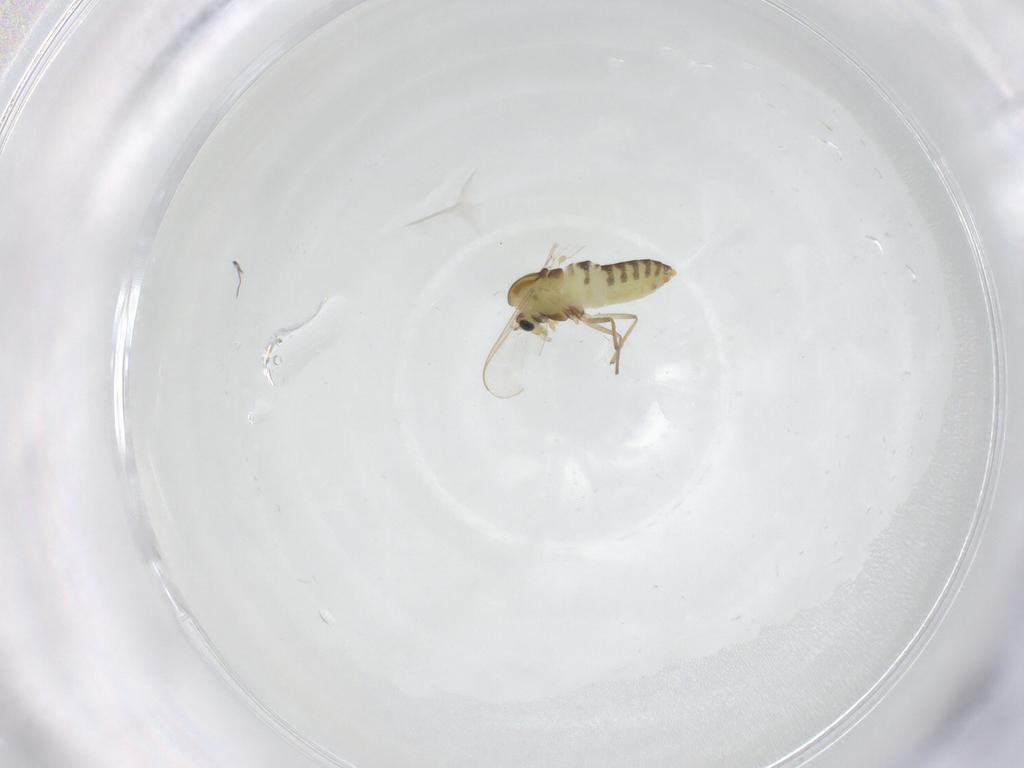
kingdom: Animalia
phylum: Arthropoda
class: Insecta
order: Diptera
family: Chironomidae
